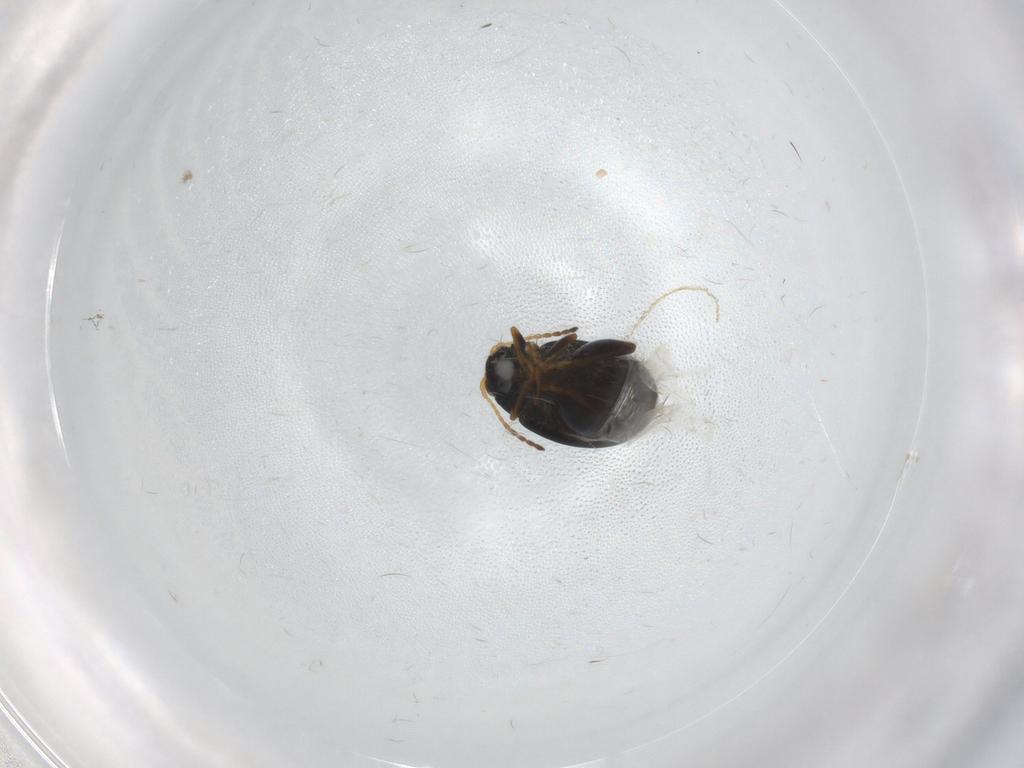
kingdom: Animalia
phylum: Arthropoda
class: Insecta
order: Coleoptera
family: Chrysomelidae
